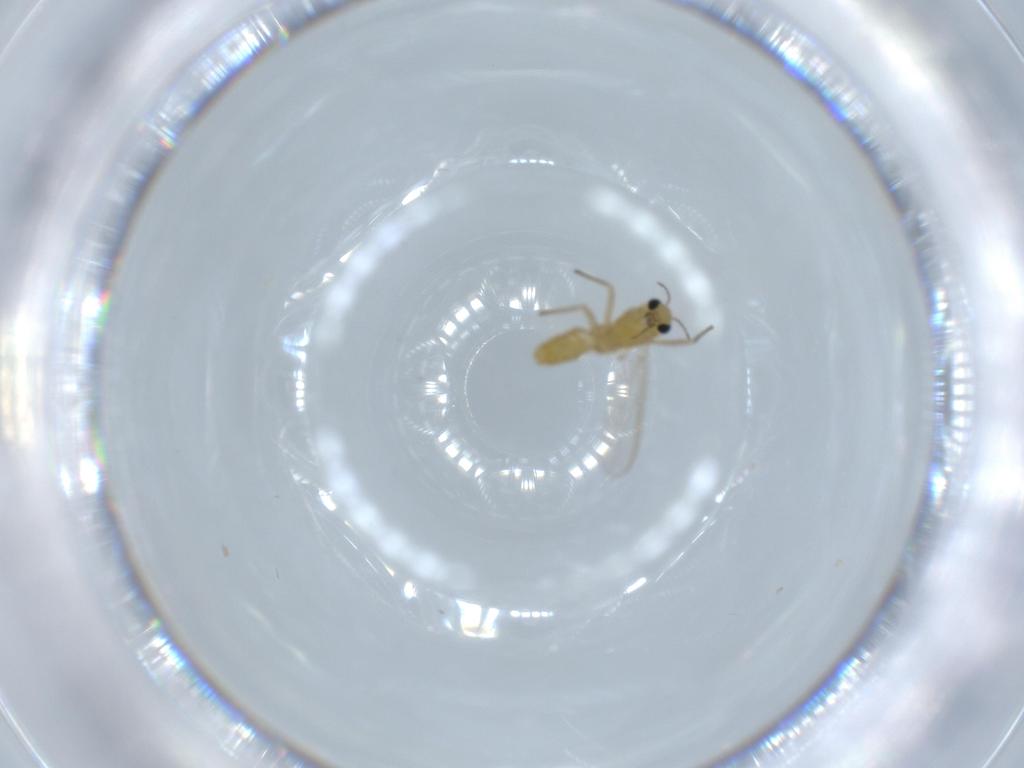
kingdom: Animalia
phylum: Arthropoda
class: Insecta
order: Diptera
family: Chironomidae
